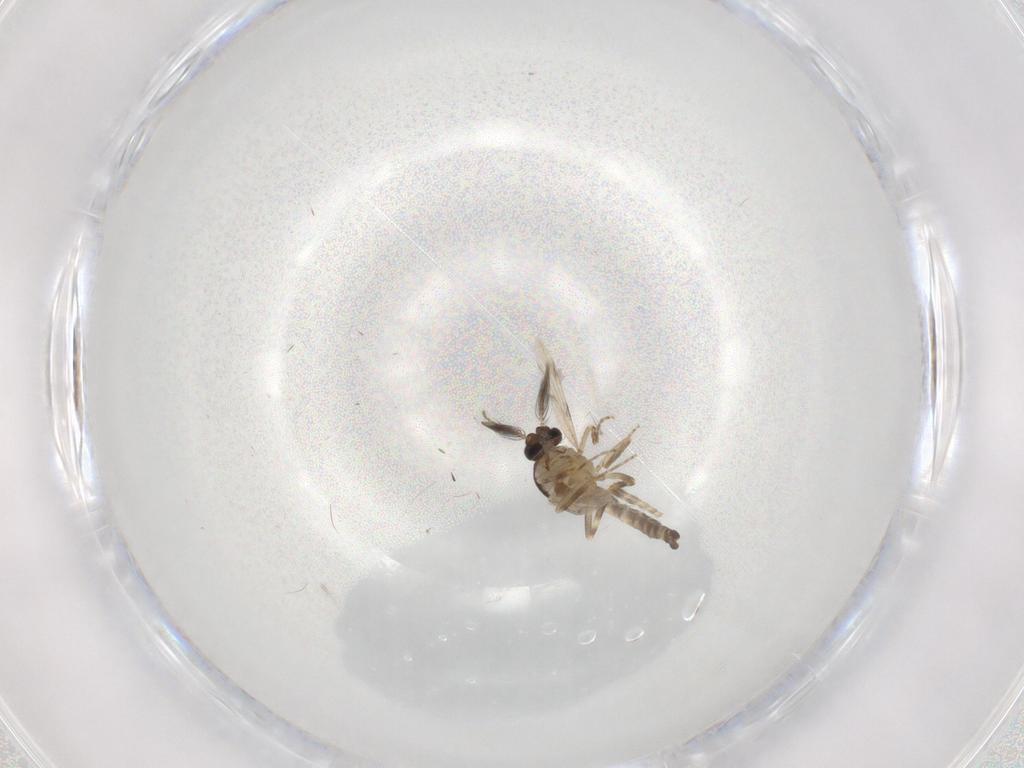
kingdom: Animalia
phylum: Arthropoda
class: Insecta
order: Diptera
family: Ceratopogonidae
